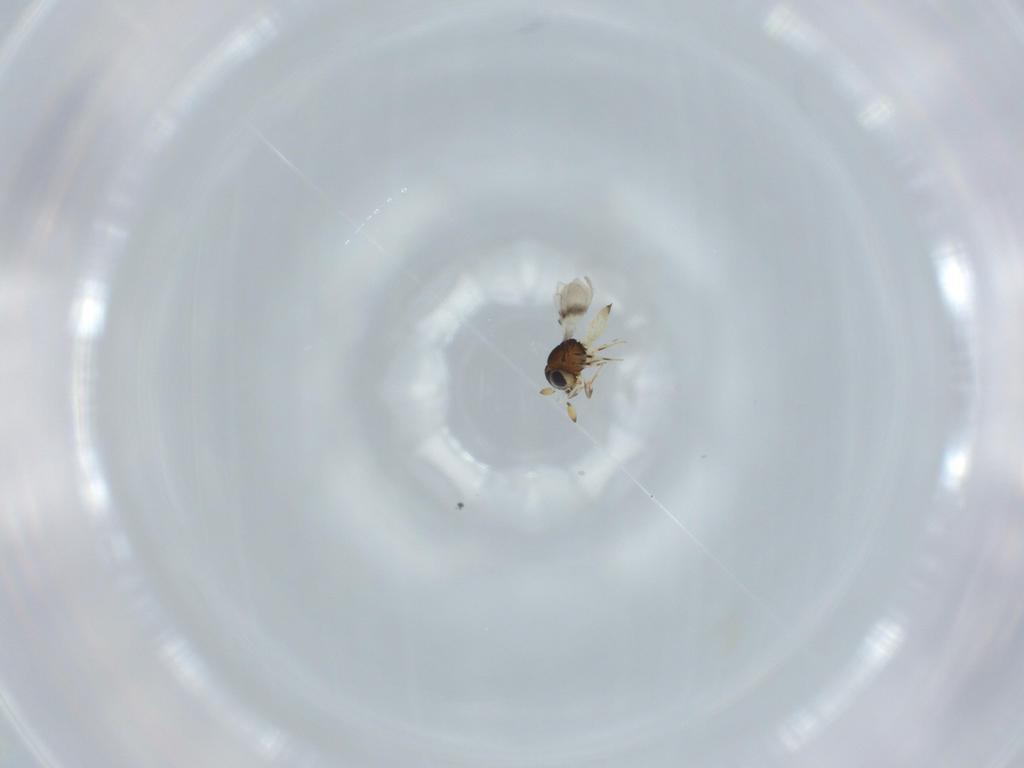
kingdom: Animalia
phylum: Arthropoda
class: Insecta
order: Hymenoptera
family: Scelionidae
